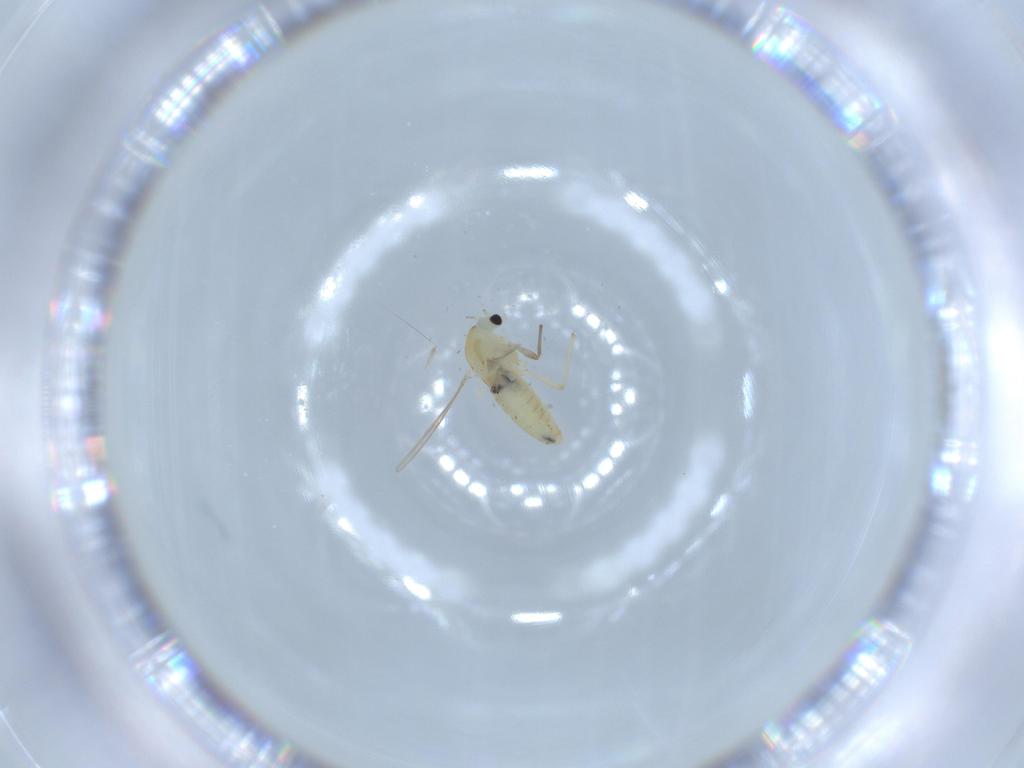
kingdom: Animalia
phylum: Arthropoda
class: Insecta
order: Diptera
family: Chironomidae
